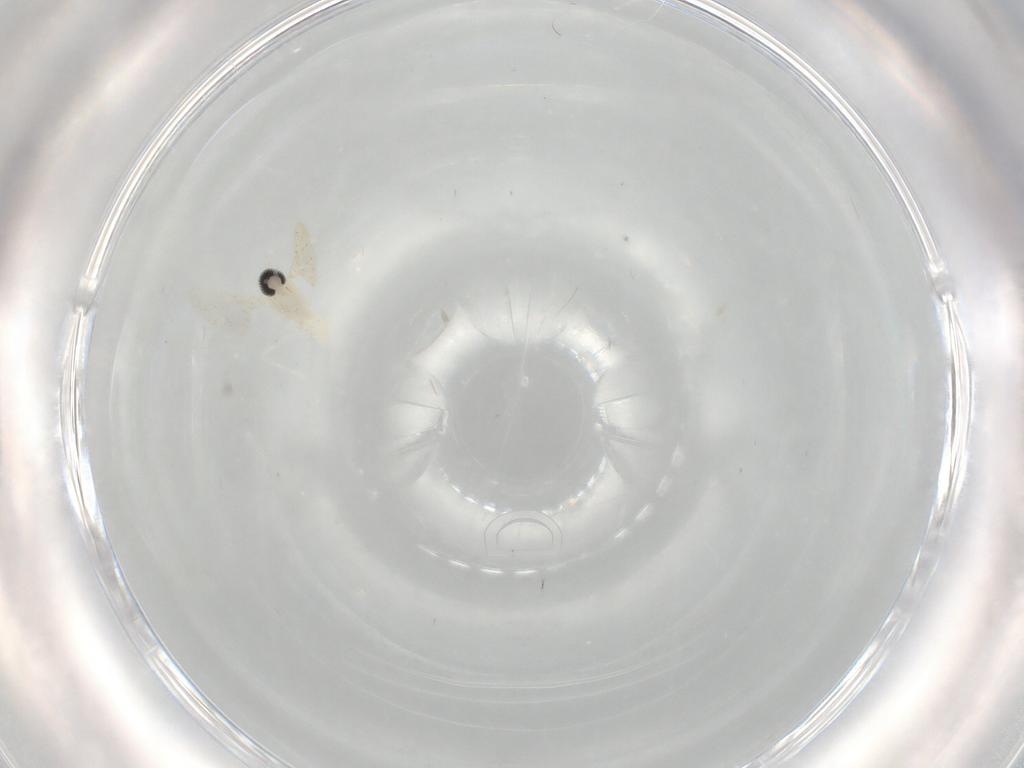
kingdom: Animalia
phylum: Arthropoda
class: Insecta
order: Diptera
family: Cecidomyiidae
